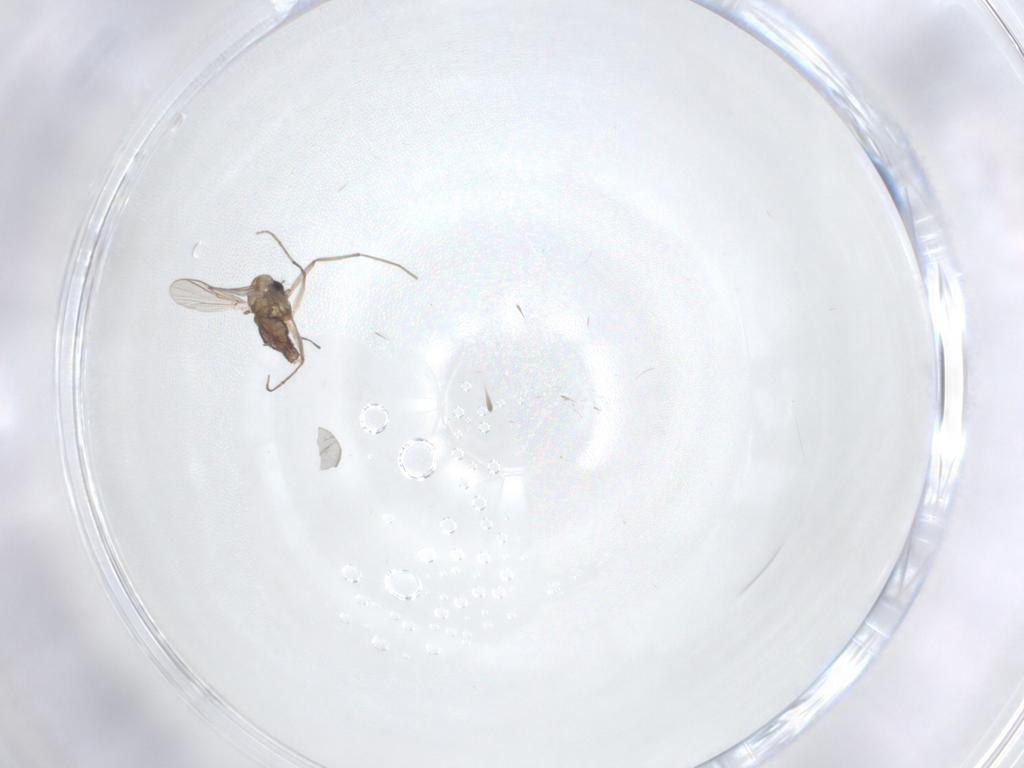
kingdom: Animalia
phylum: Arthropoda
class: Insecta
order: Diptera
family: Chironomidae
